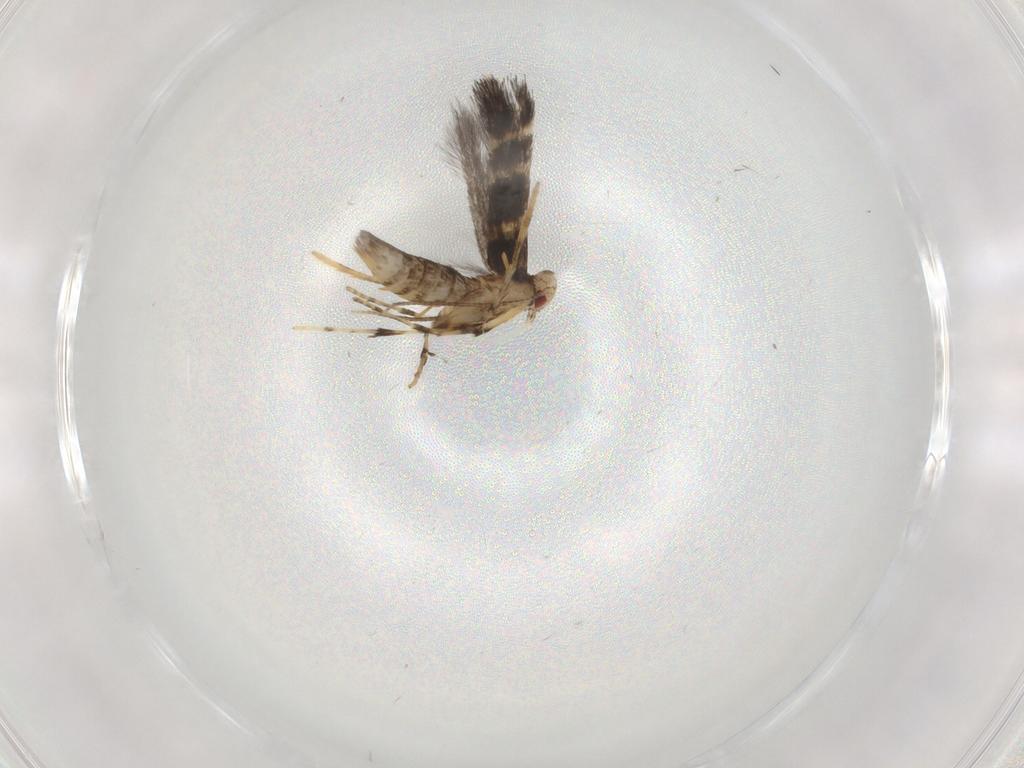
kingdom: Animalia
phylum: Arthropoda
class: Insecta
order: Lepidoptera
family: Gracillariidae
